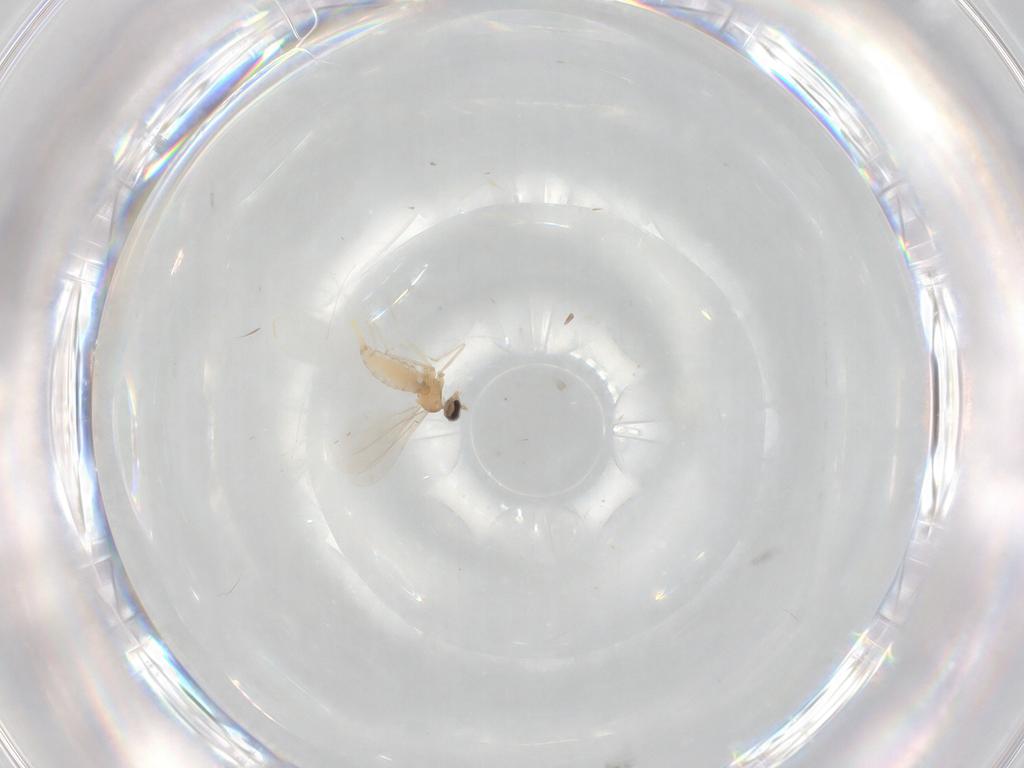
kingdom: Animalia
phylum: Arthropoda
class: Insecta
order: Diptera
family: Cecidomyiidae
